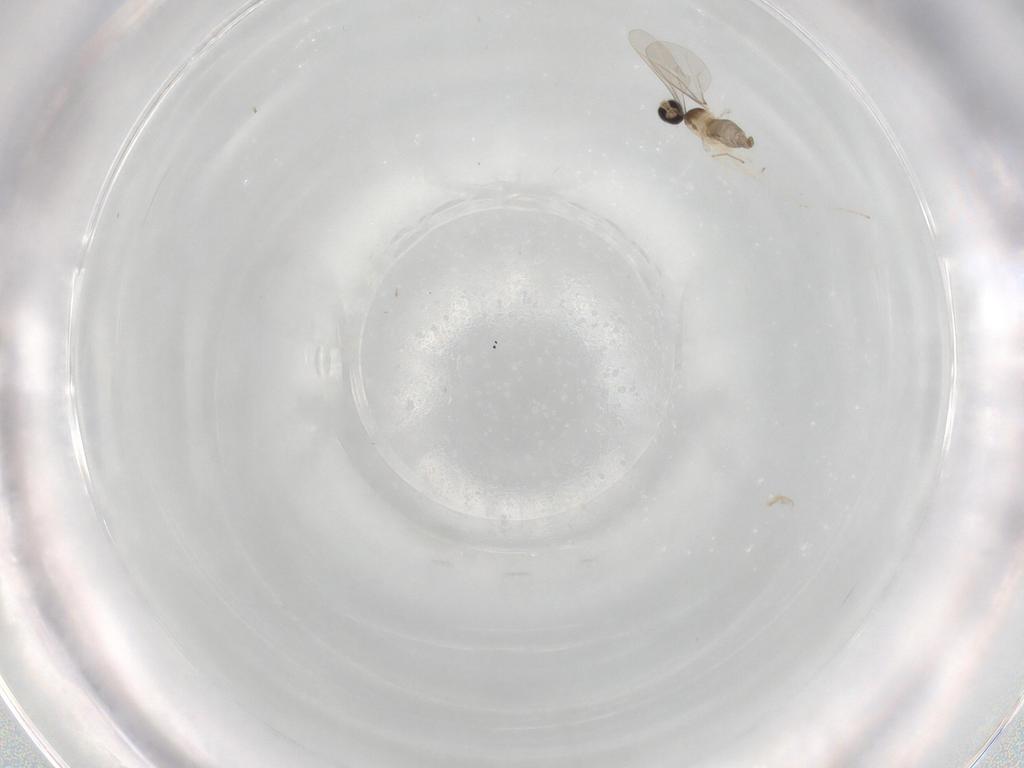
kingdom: Animalia
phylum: Arthropoda
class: Insecta
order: Diptera
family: Cecidomyiidae
